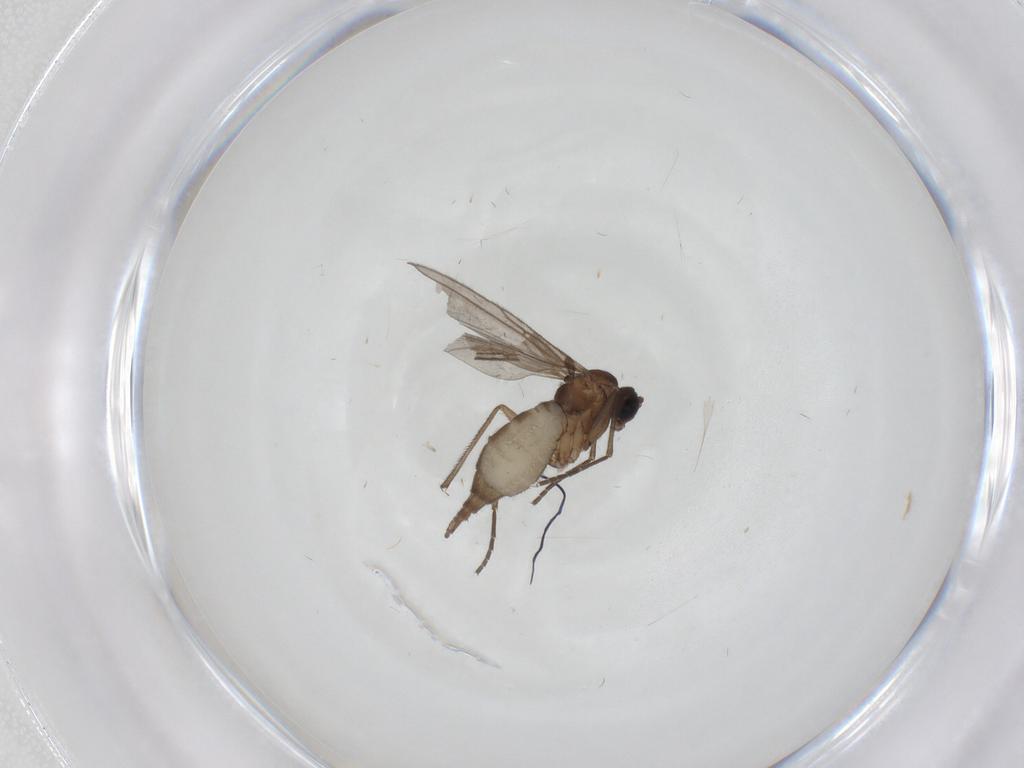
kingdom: Animalia
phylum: Arthropoda
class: Insecta
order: Diptera
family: Sciaridae
